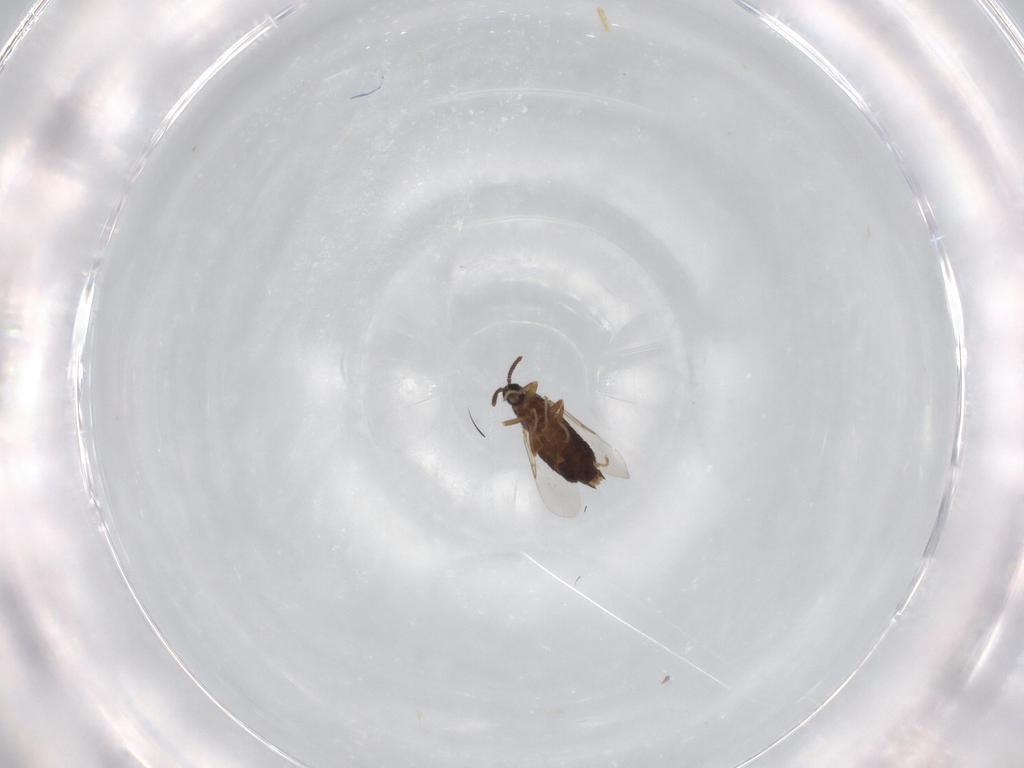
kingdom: Animalia
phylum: Arthropoda
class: Insecta
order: Diptera
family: Scatopsidae
